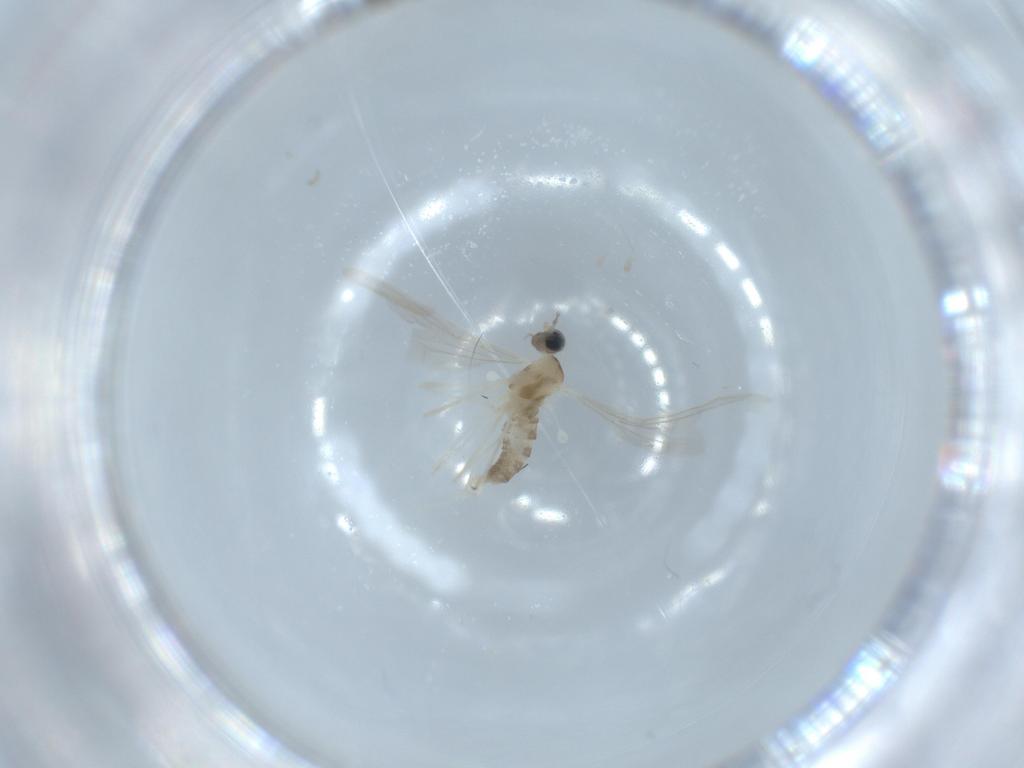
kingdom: Animalia
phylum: Arthropoda
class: Insecta
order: Diptera
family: Cecidomyiidae
